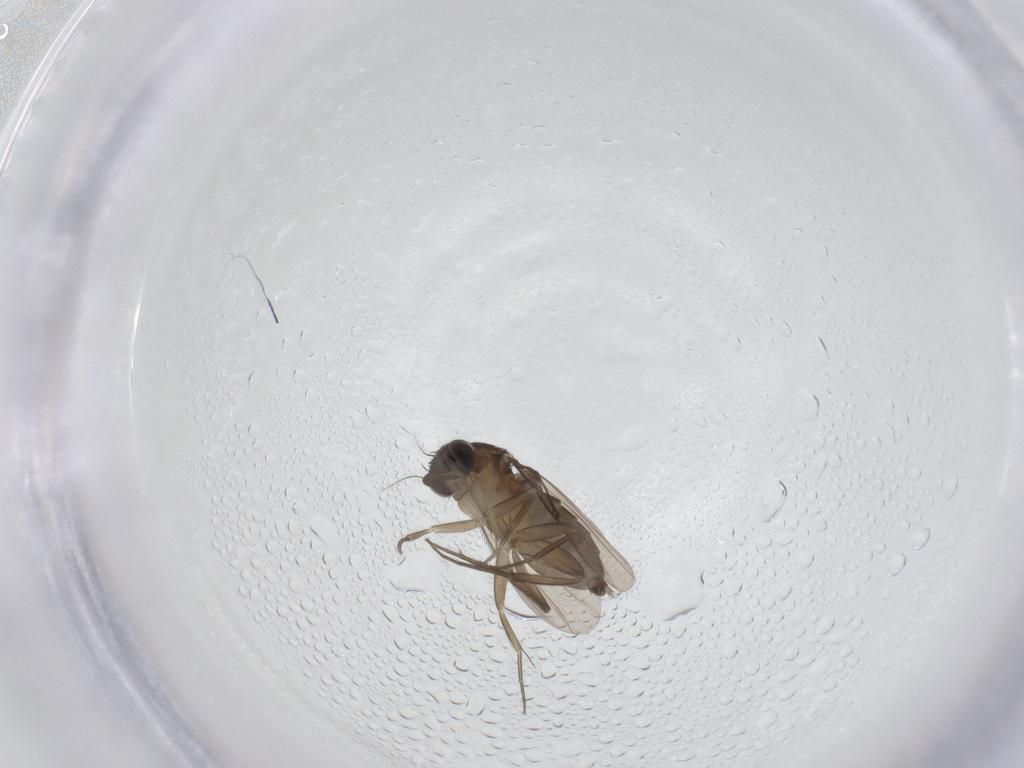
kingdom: Animalia
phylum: Arthropoda
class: Insecta
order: Diptera
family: Phoridae
